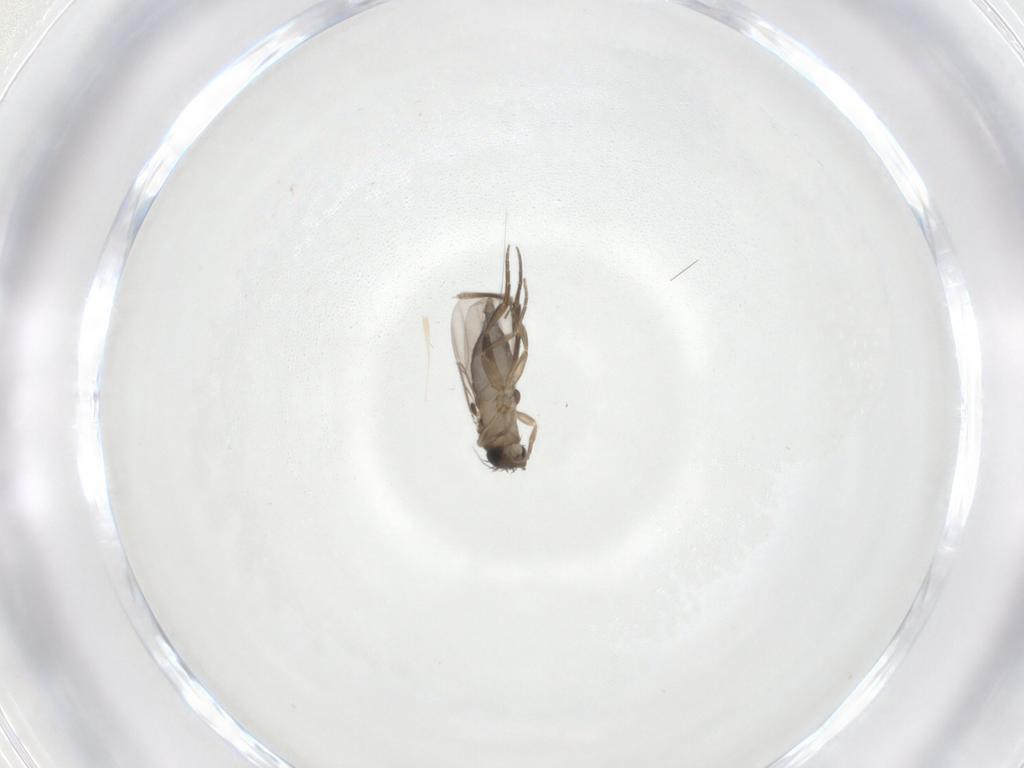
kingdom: Animalia
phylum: Arthropoda
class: Insecta
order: Diptera
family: Phoridae
